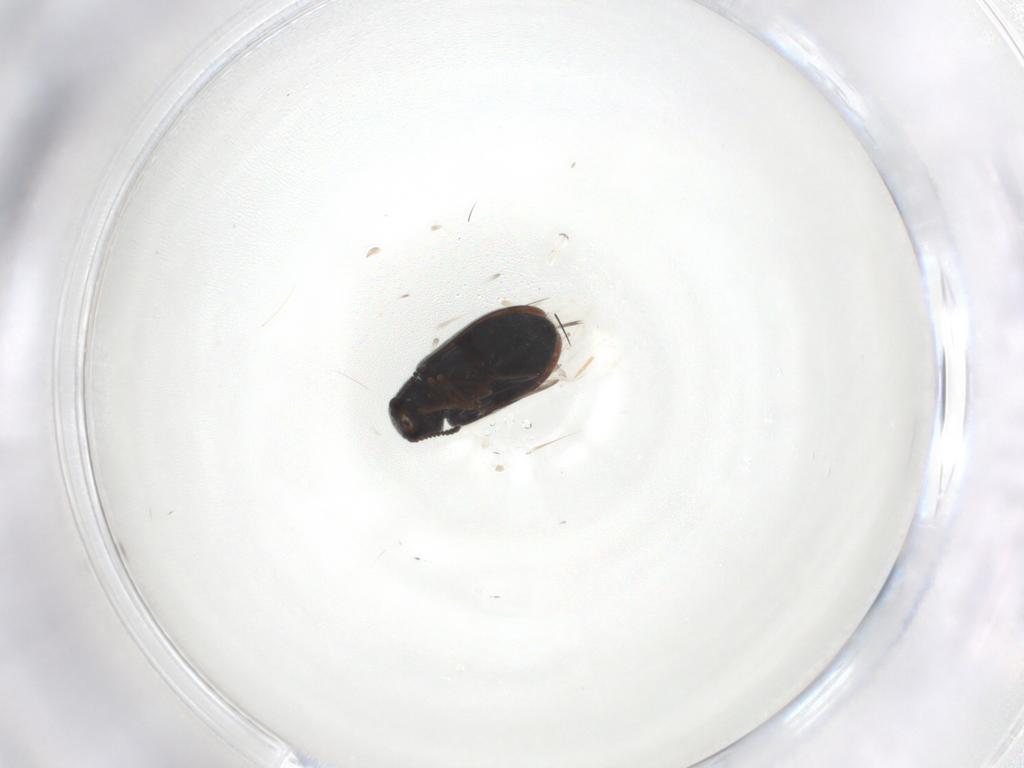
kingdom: Animalia
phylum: Arthropoda
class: Insecta
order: Coleoptera
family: Melyridae
